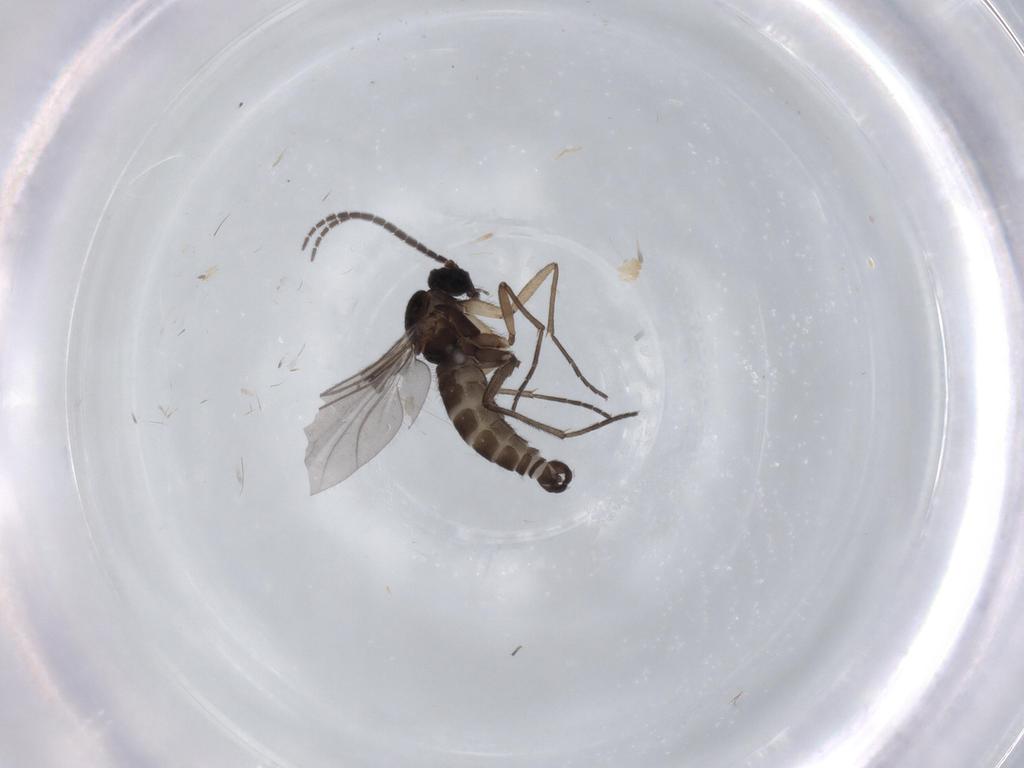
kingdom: Animalia
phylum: Arthropoda
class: Insecta
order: Diptera
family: Sciaridae
